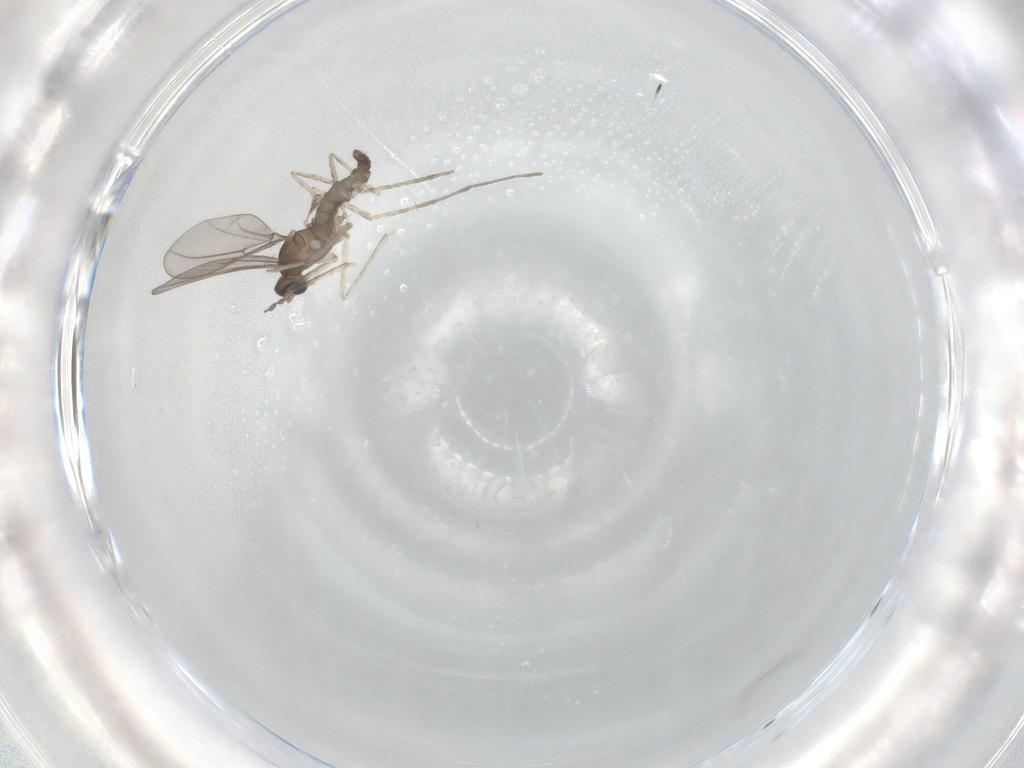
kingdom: Animalia
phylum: Arthropoda
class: Insecta
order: Diptera
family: Cecidomyiidae
